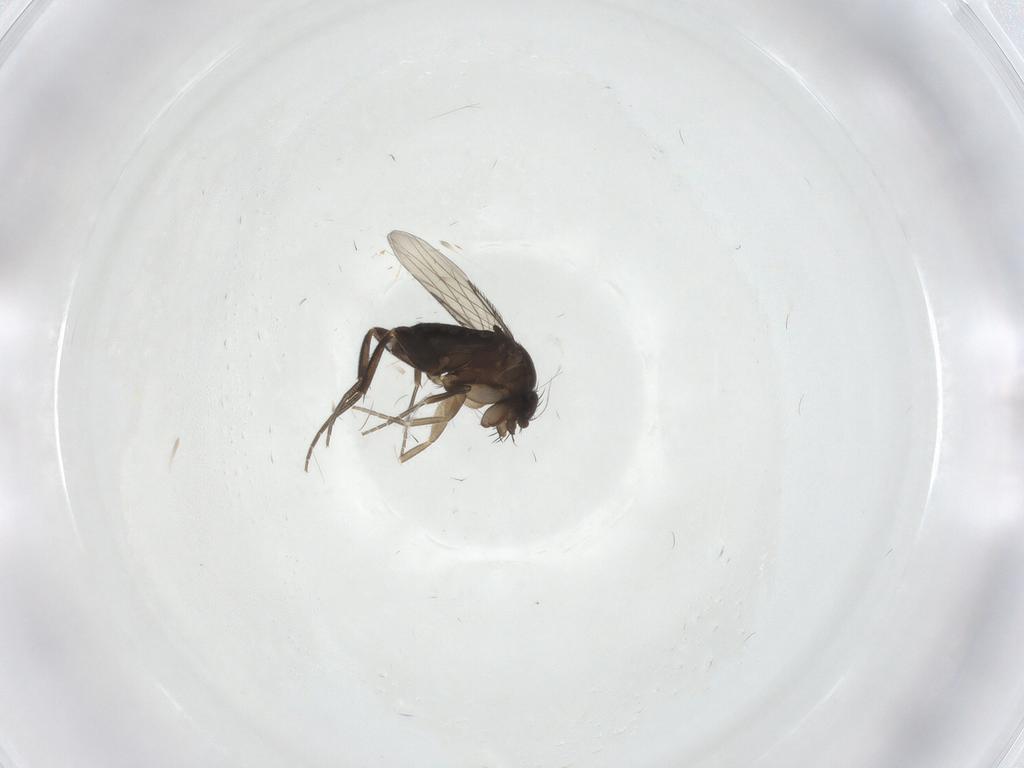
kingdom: Animalia
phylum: Arthropoda
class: Insecta
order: Diptera
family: Phoridae
